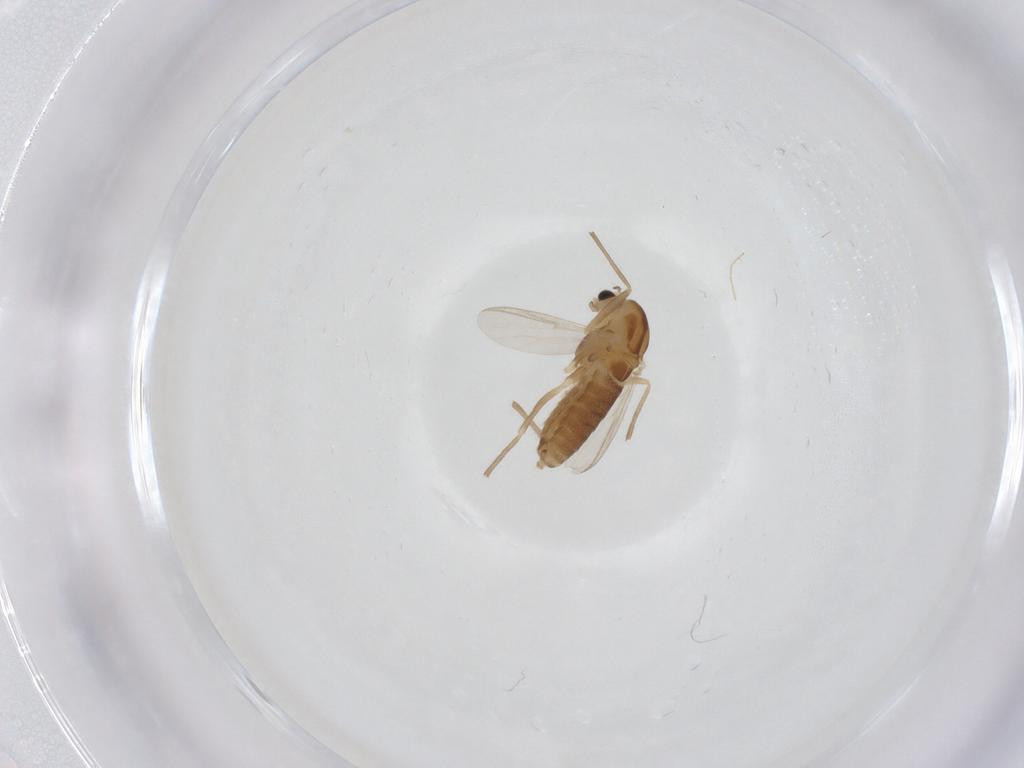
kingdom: Animalia
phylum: Arthropoda
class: Insecta
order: Diptera
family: Chironomidae
